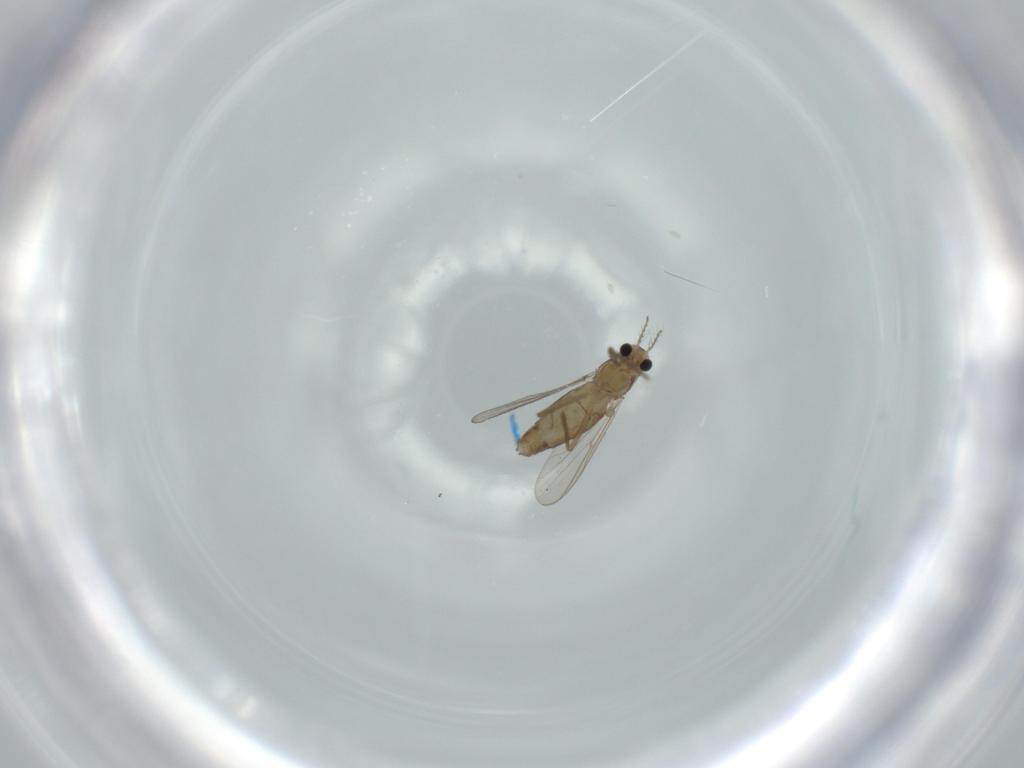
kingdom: Animalia
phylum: Arthropoda
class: Insecta
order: Diptera
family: Chironomidae
